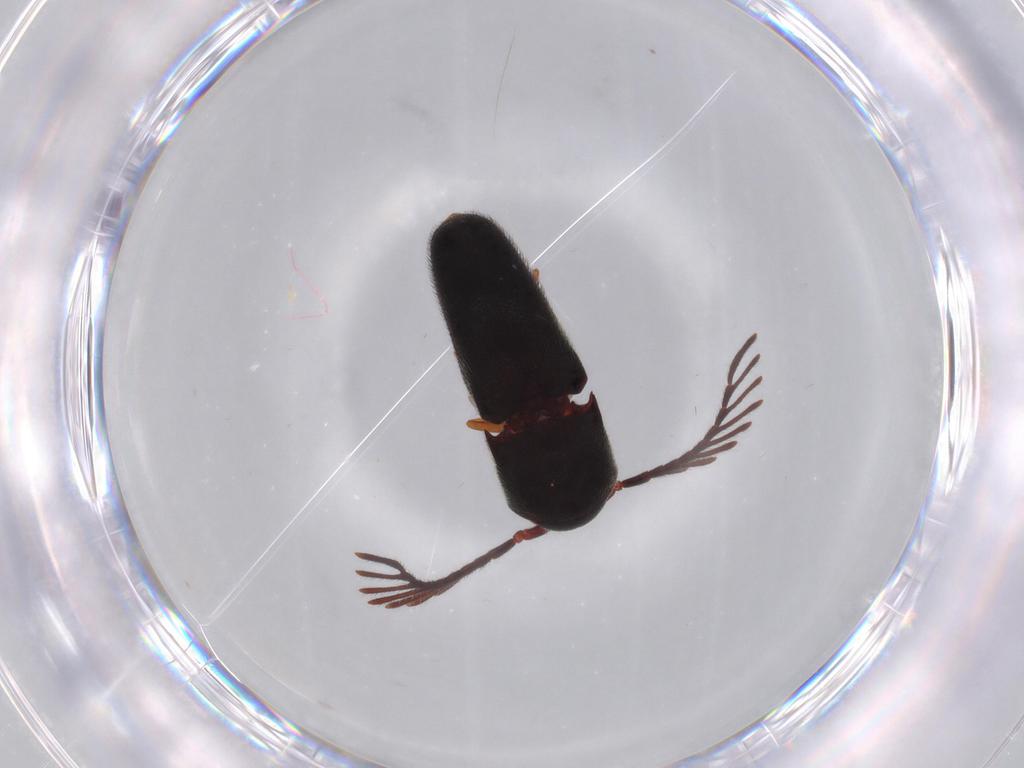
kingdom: Animalia
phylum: Arthropoda
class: Insecta
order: Coleoptera
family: Eucnemidae
